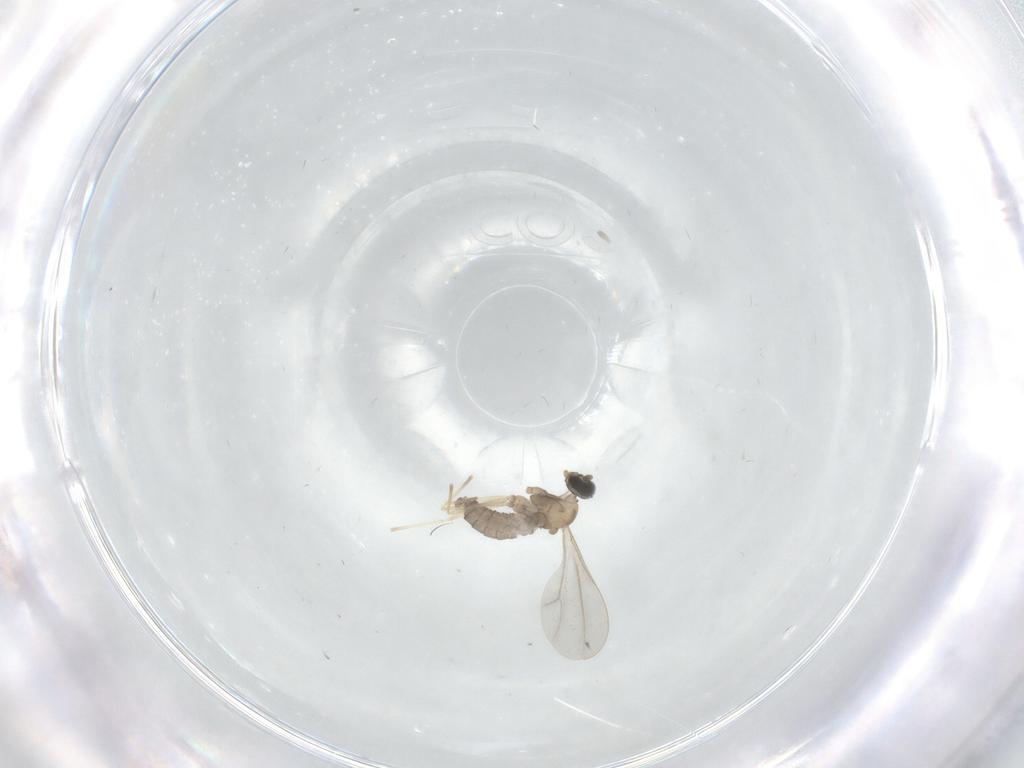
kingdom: Animalia
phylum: Arthropoda
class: Insecta
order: Diptera
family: Cecidomyiidae
